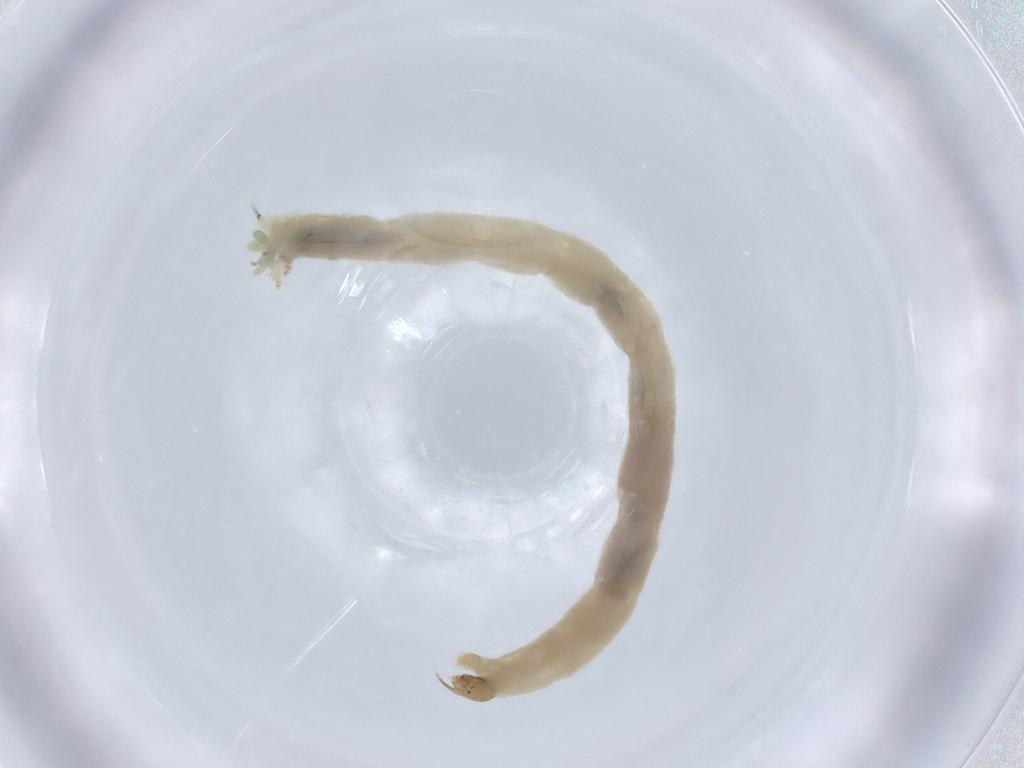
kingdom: Animalia
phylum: Arthropoda
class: Insecta
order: Diptera
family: Chironomidae
